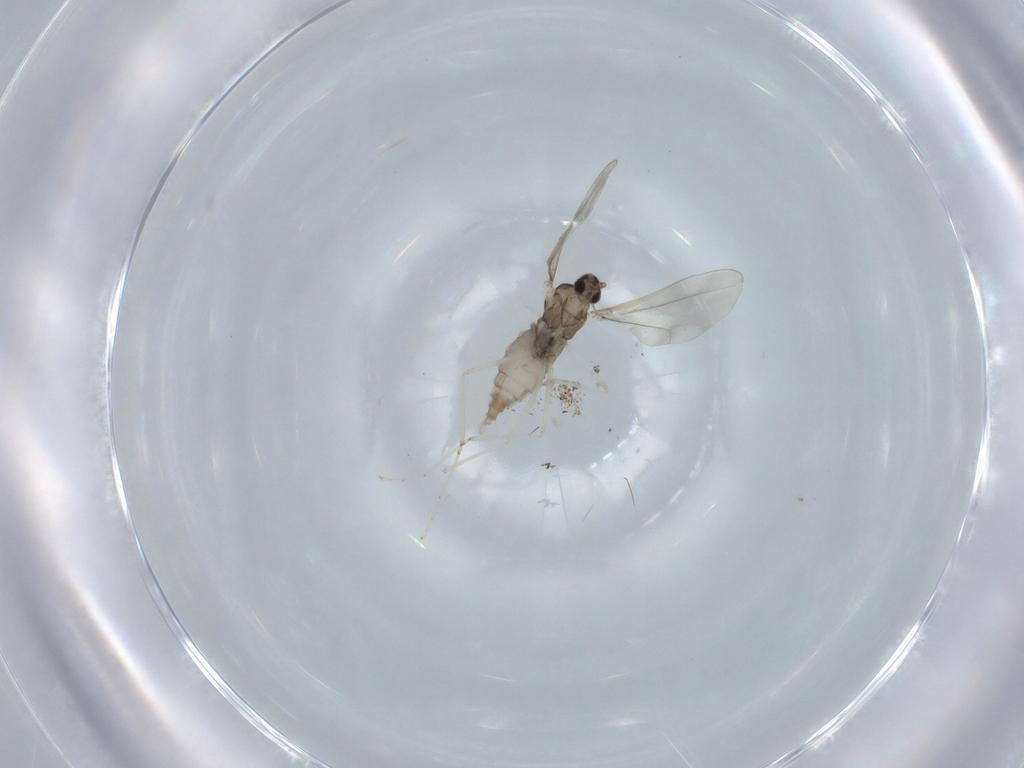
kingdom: Animalia
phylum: Arthropoda
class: Insecta
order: Diptera
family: Cecidomyiidae
